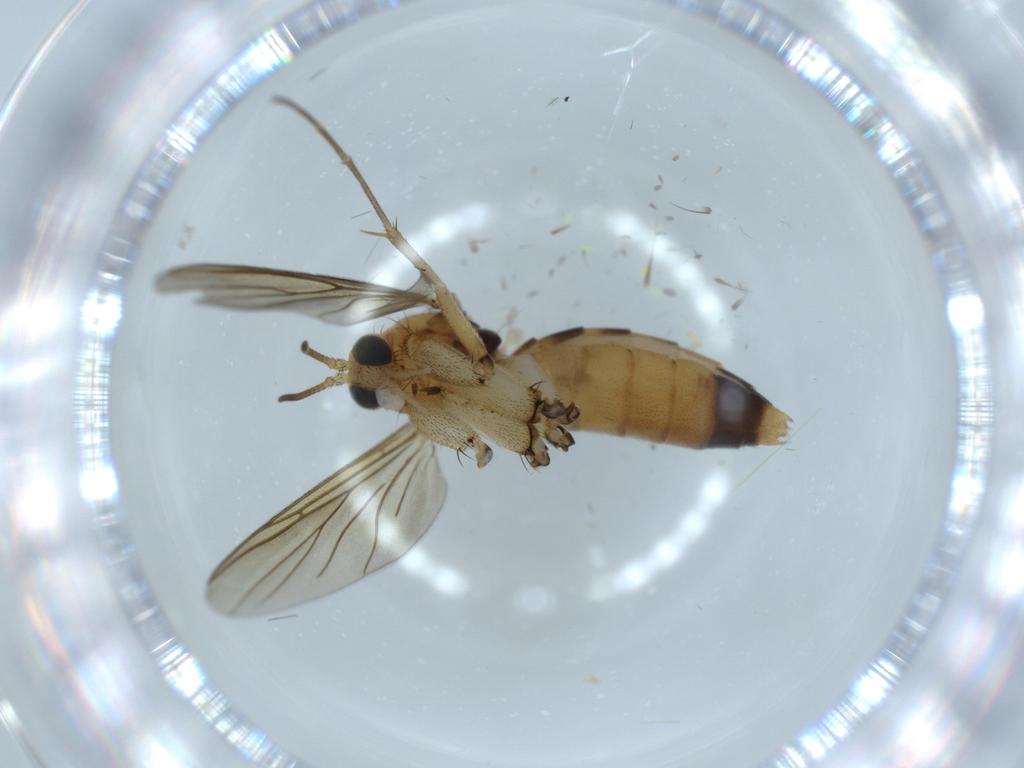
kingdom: Animalia
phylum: Arthropoda
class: Insecta
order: Diptera
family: Mycetophilidae
